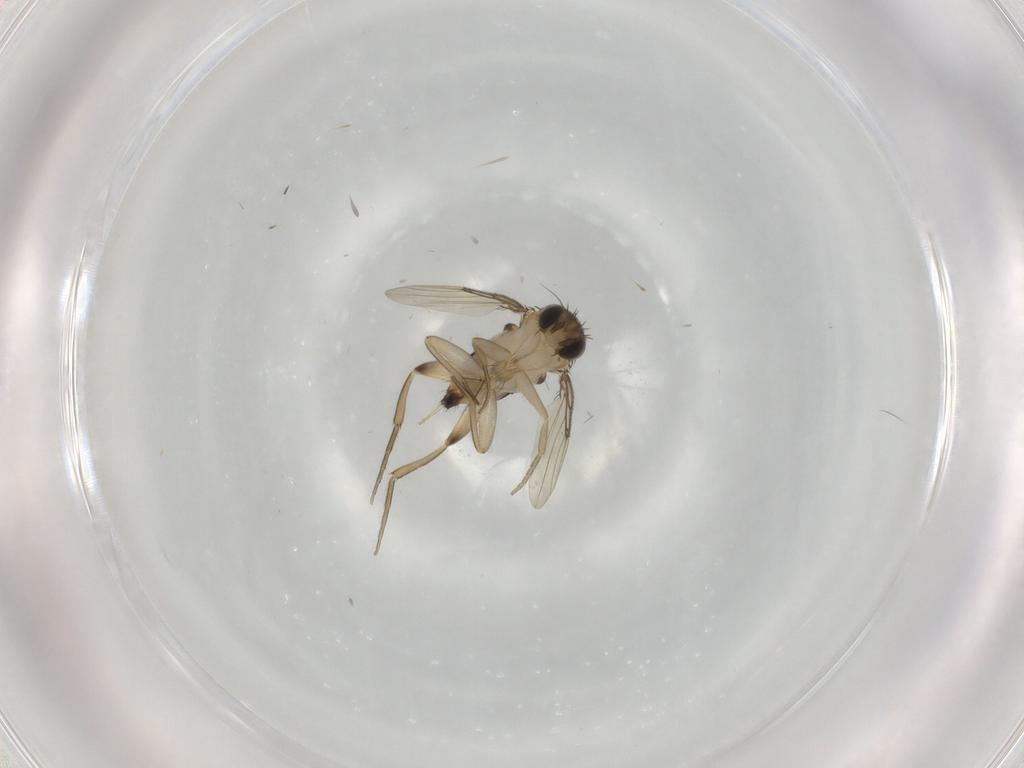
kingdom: Animalia
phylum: Arthropoda
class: Insecta
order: Diptera
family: Phoridae
